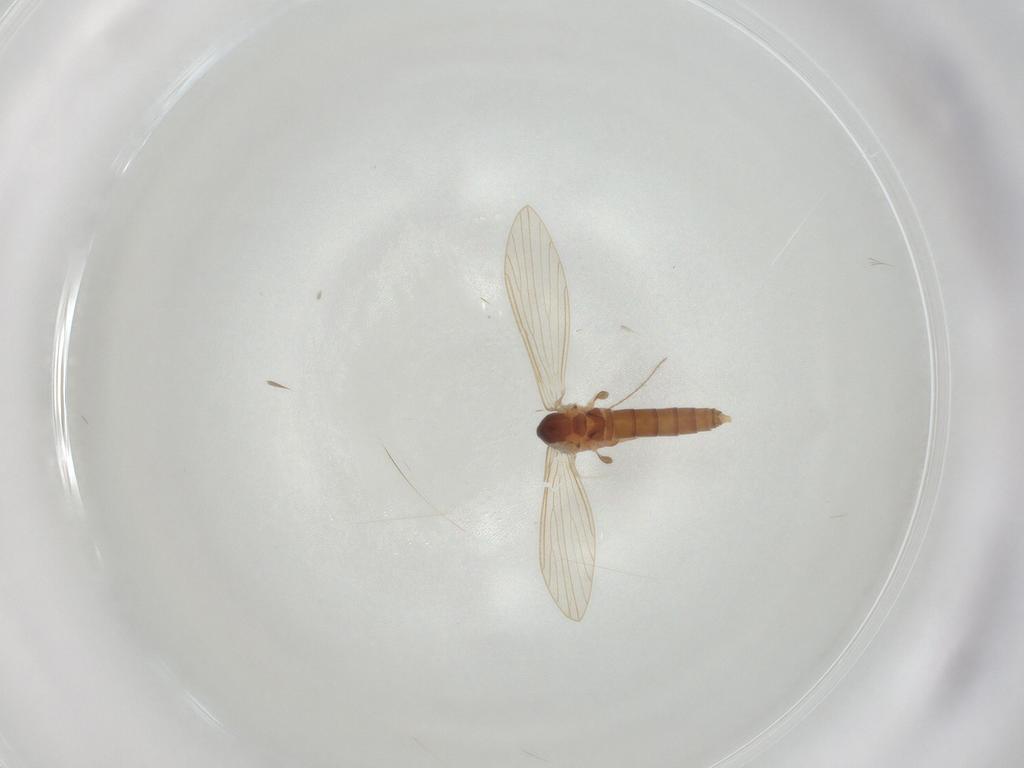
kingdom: Animalia
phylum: Arthropoda
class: Insecta
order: Diptera
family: Psychodidae
